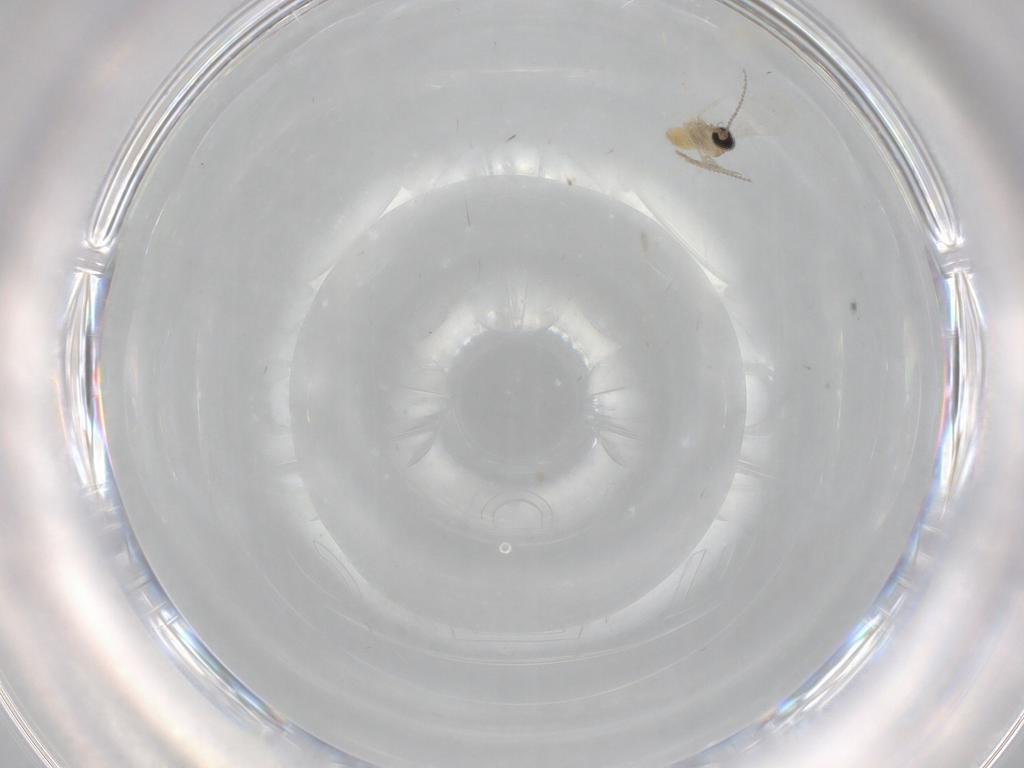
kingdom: Animalia
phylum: Arthropoda
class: Insecta
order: Diptera
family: Cecidomyiidae
